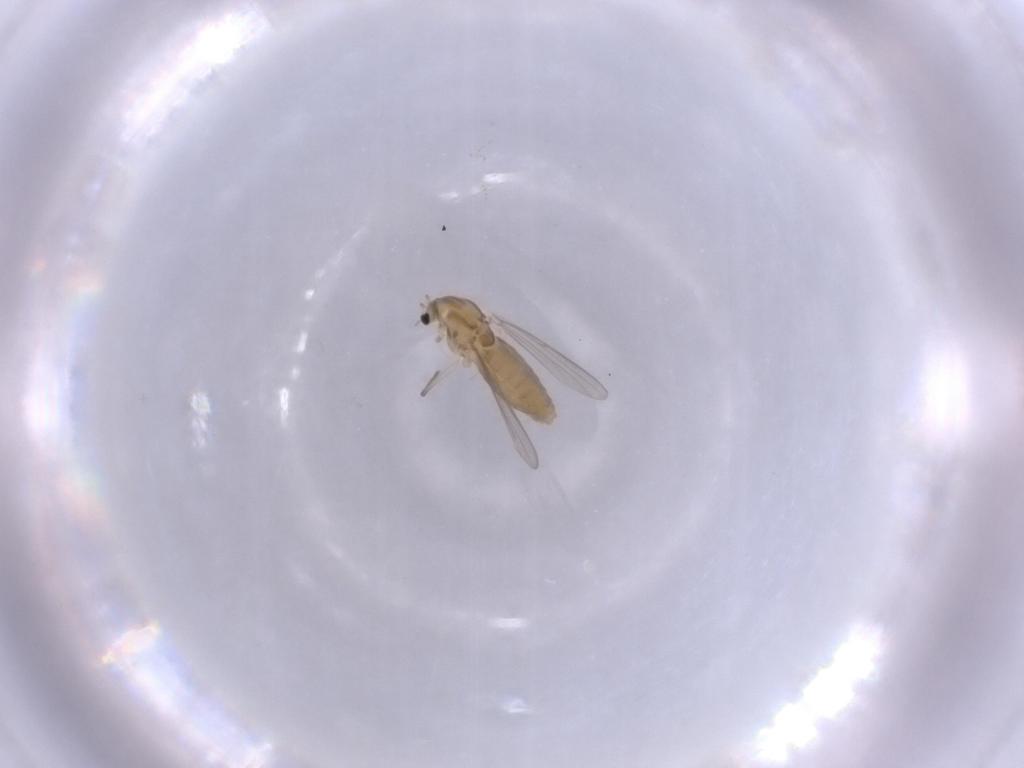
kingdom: Animalia
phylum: Arthropoda
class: Insecta
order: Diptera
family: Chironomidae
